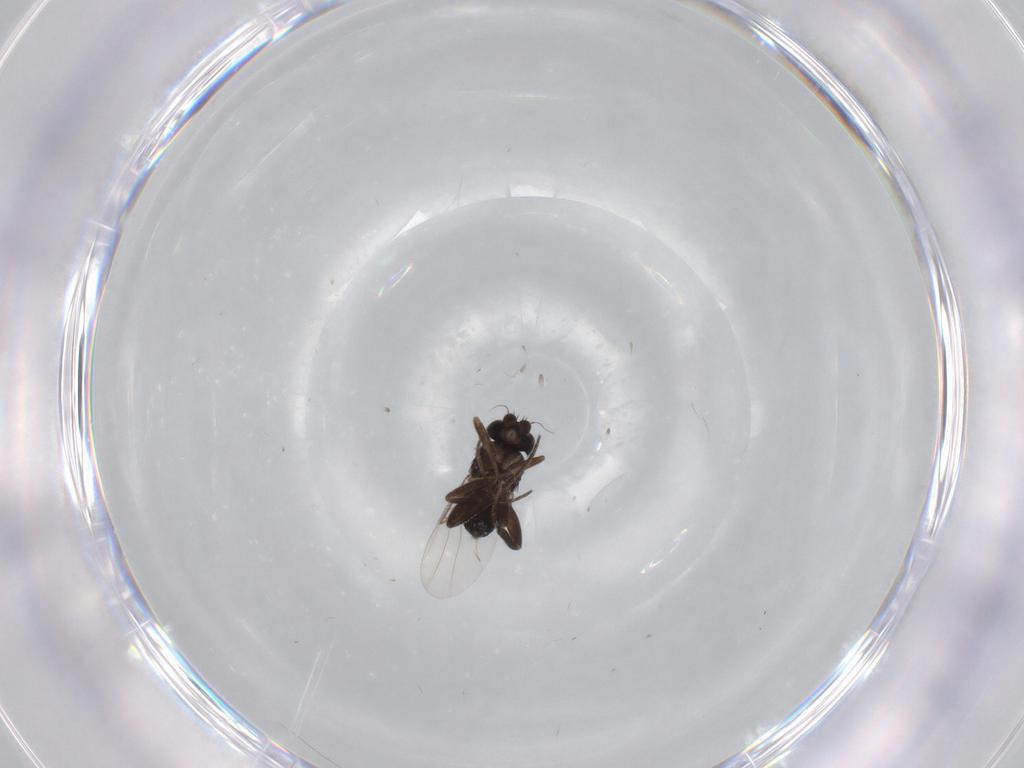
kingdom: Animalia
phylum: Arthropoda
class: Insecta
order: Diptera
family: Phoridae
